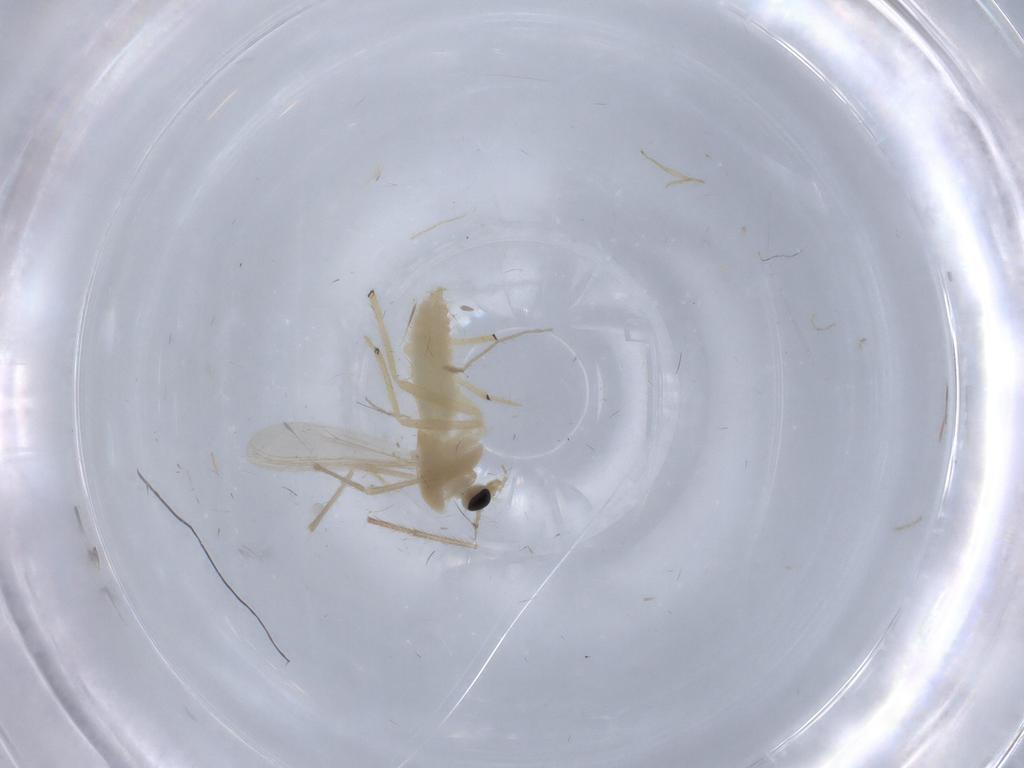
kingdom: Animalia
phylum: Arthropoda
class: Insecta
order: Diptera
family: Chironomidae
